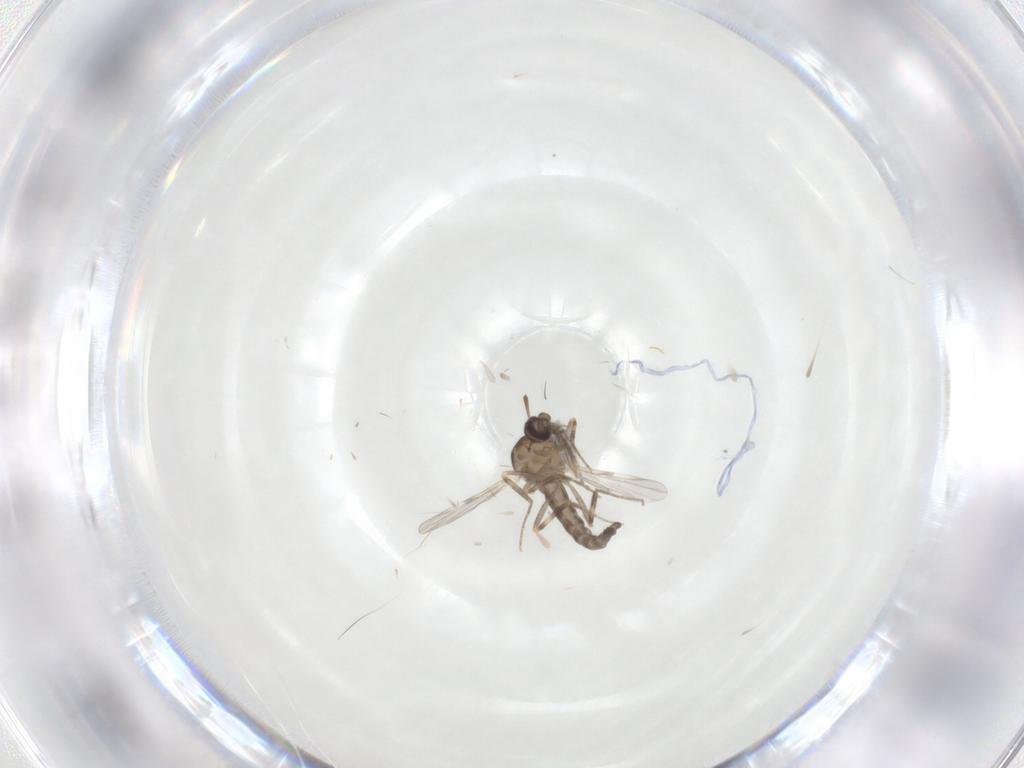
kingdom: Animalia
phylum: Arthropoda
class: Insecta
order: Diptera
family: Chironomidae
